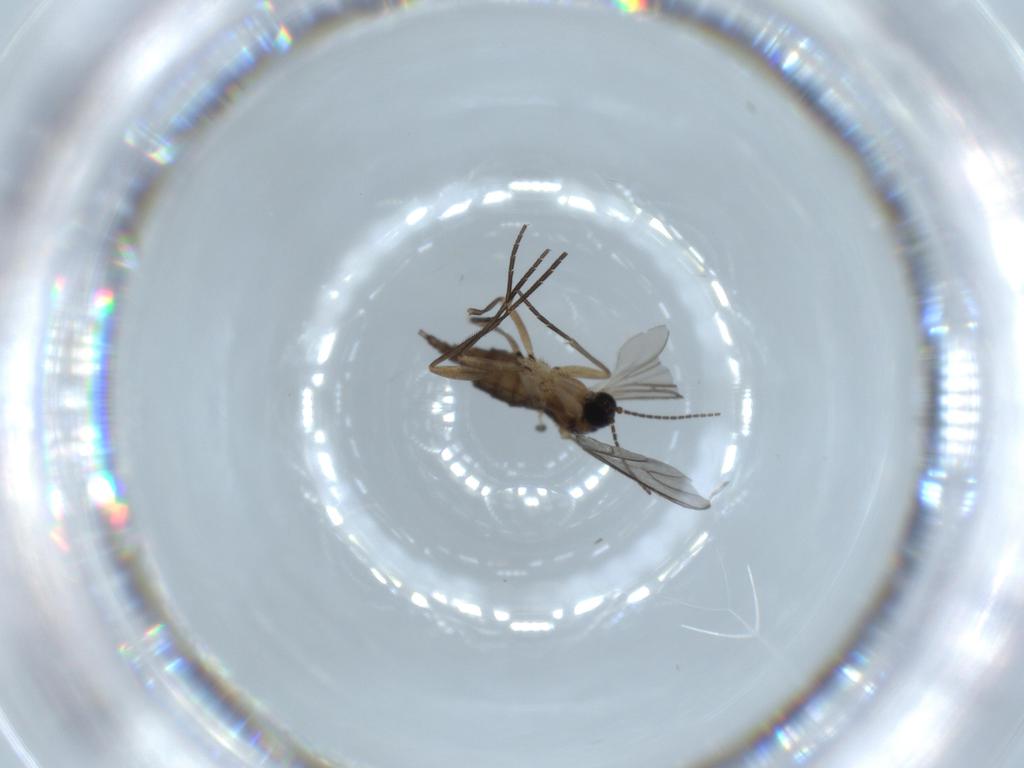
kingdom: Animalia
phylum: Arthropoda
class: Insecta
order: Diptera
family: Sciaridae
